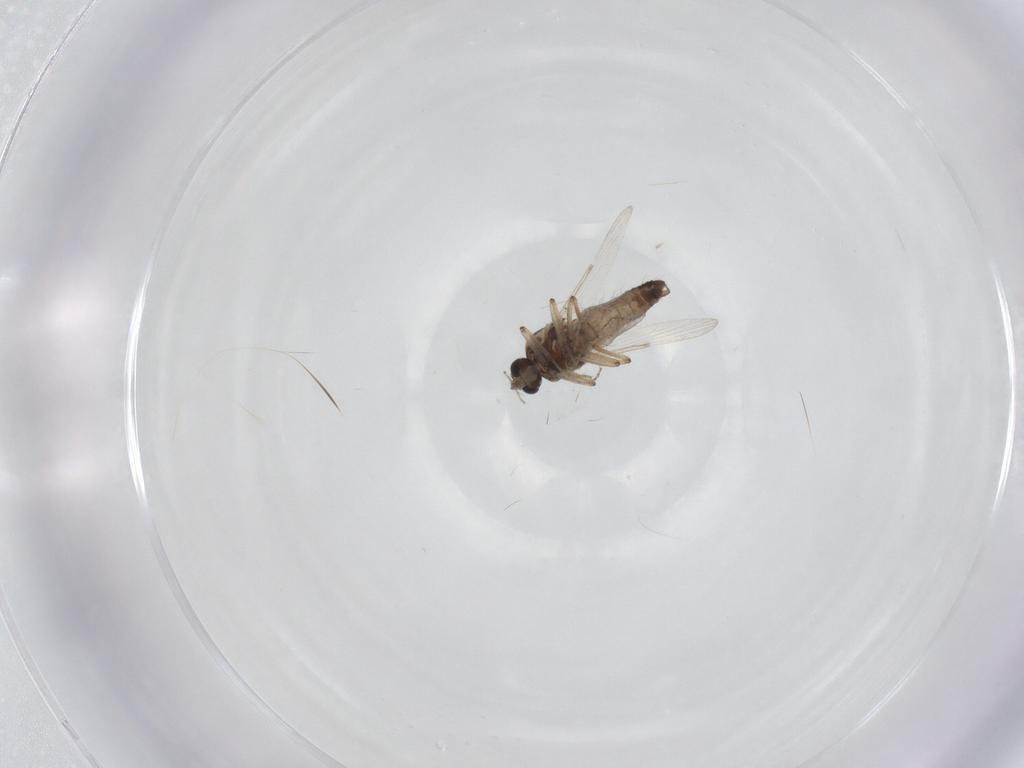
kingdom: Animalia
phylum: Arthropoda
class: Insecta
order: Diptera
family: Ceratopogonidae
